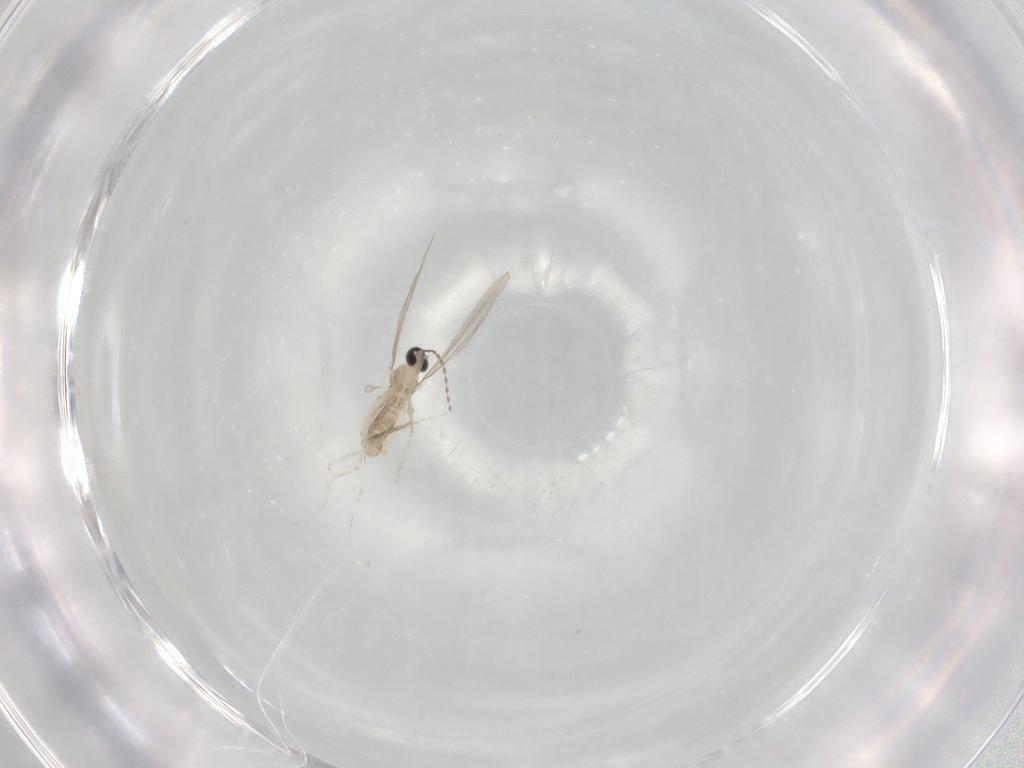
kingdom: Animalia
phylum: Arthropoda
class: Insecta
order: Diptera
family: Cecidomyiidae
